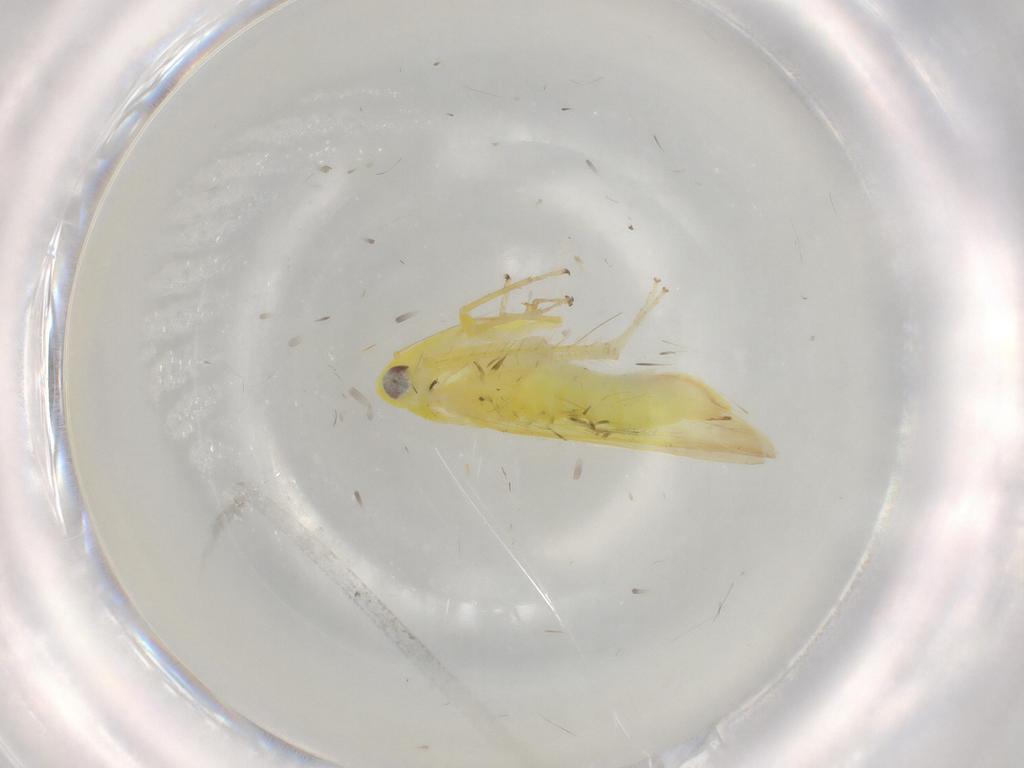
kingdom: Animalia
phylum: Arthropoda
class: Insecta
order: Hemiptera
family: Cicadellidae
